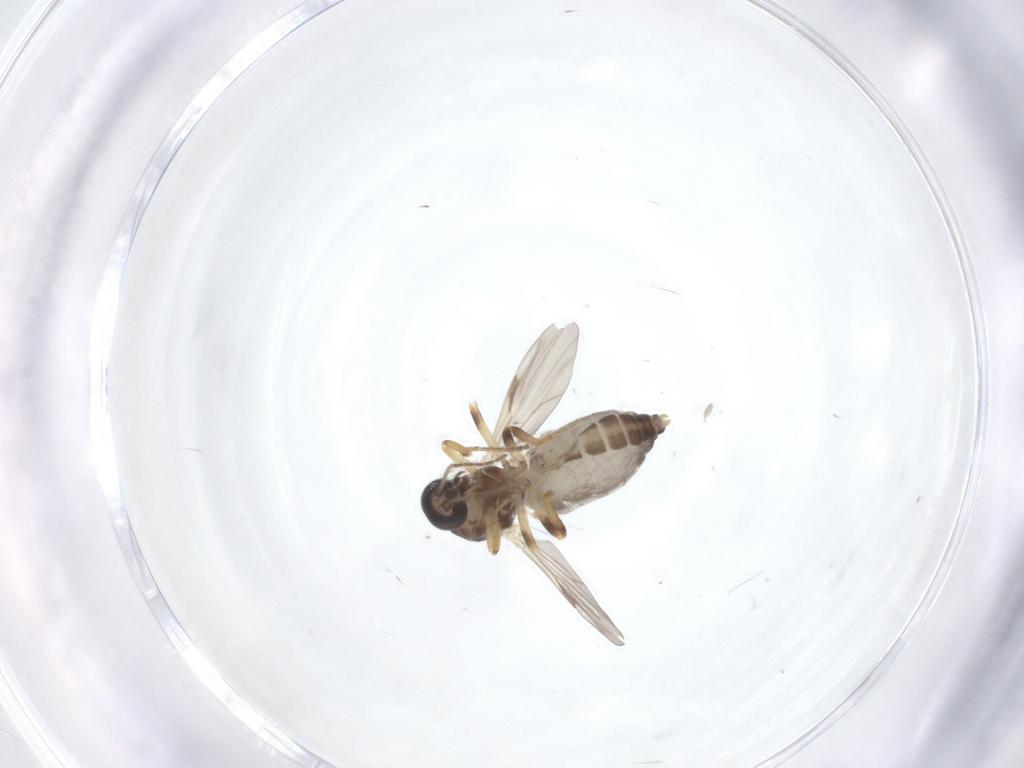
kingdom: Animalia
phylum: Arthropoda
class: Insecta
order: Diptera
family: Ceratopogonidae
